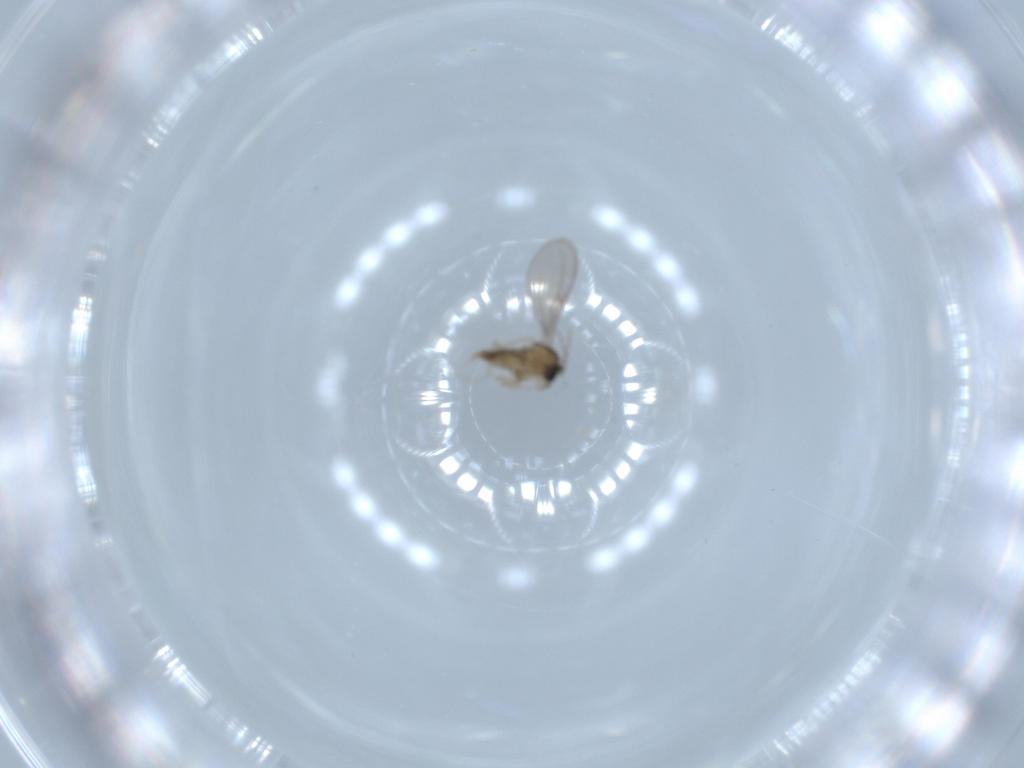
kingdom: Animalia
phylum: Arthropoda
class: Insecta
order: Diptera
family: Cecidomyiidae
